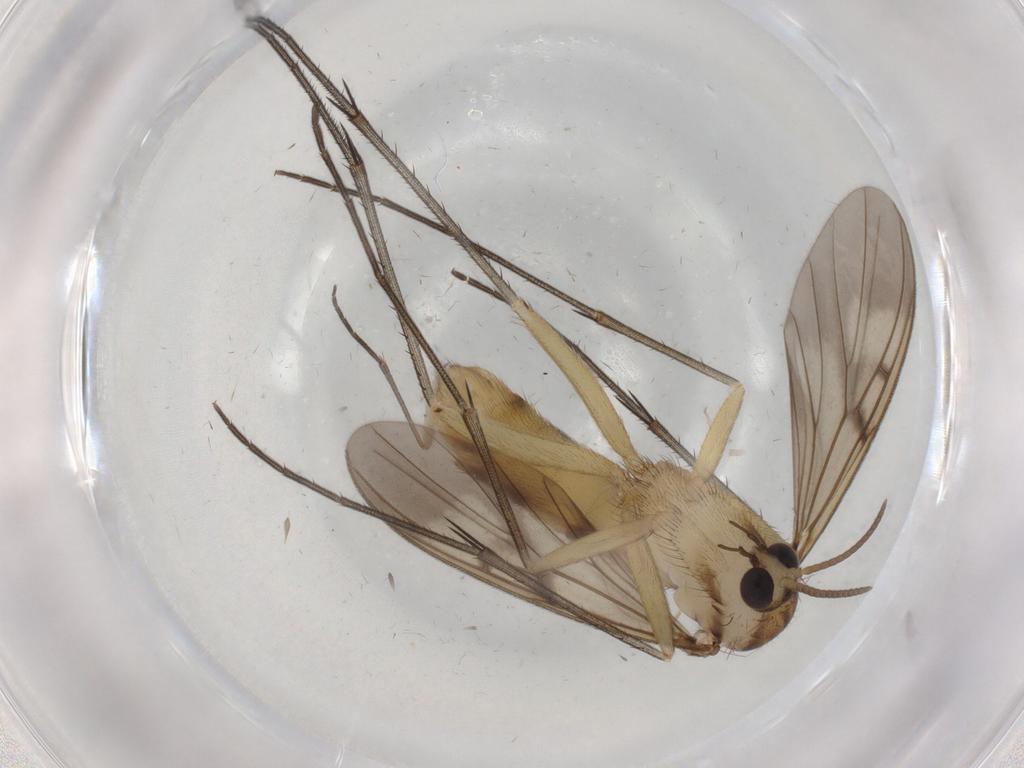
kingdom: Animalia
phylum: Arthropoda
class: Insecta
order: Diptera
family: Mycetophilidae
